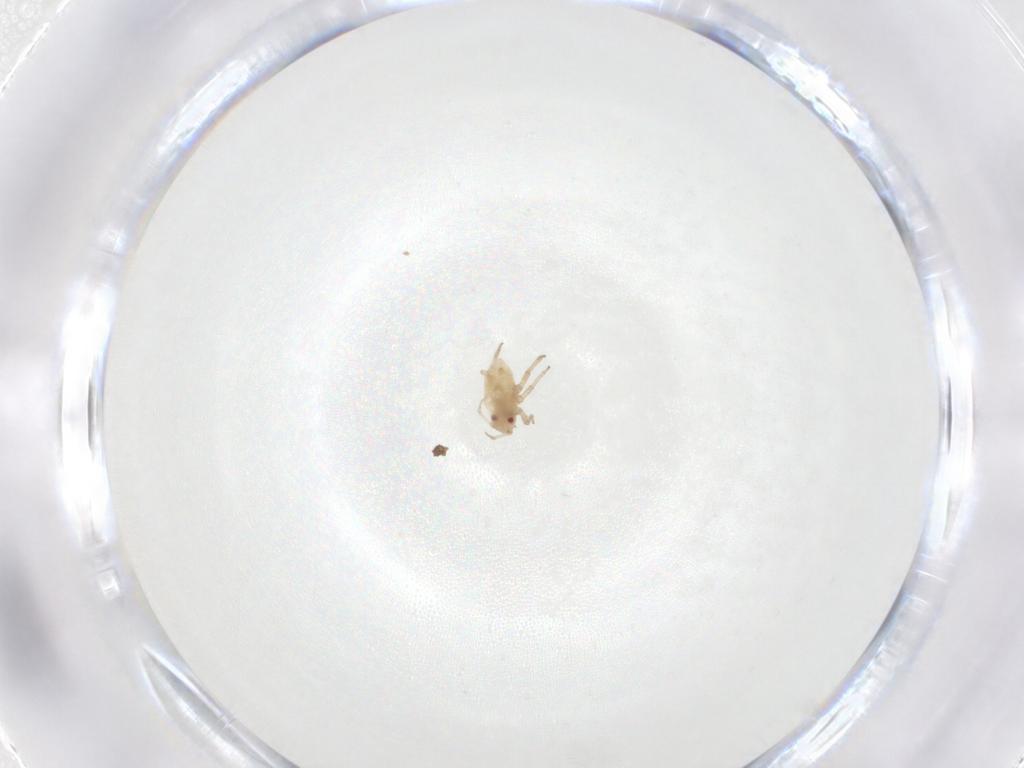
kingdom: Animalia
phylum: Arthropoda
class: Insecta
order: Hemiptera
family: Aphididae
